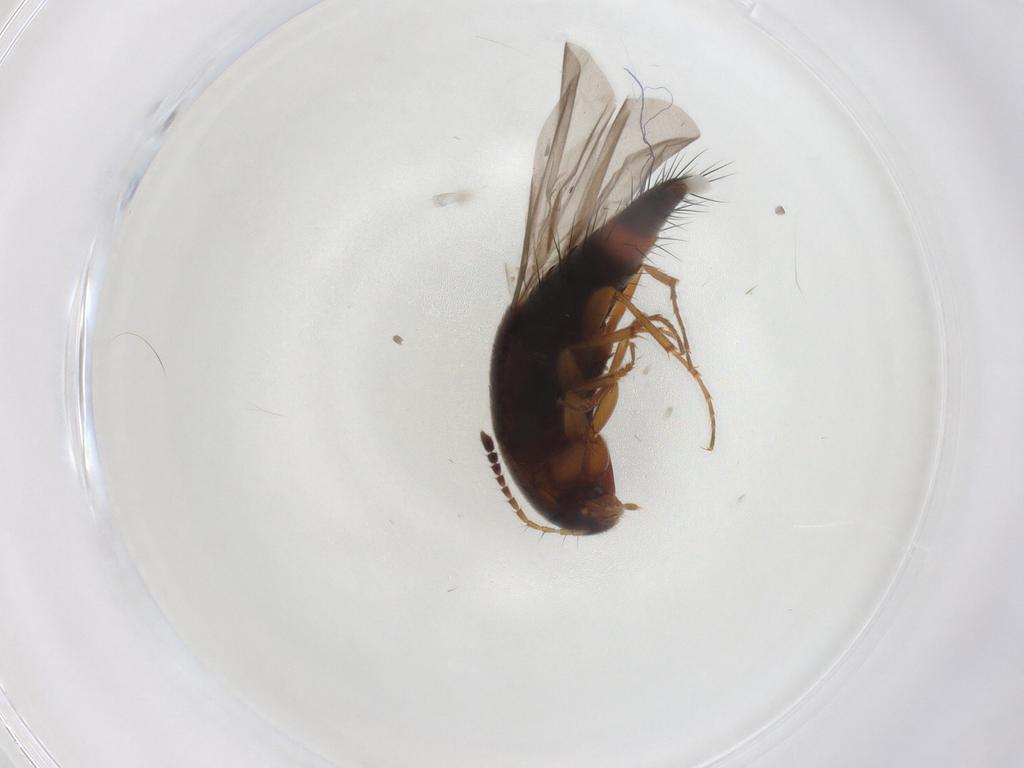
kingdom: Animalia
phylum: Arthropoda
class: Insecta
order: Coleoptera
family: Staphylinidae
